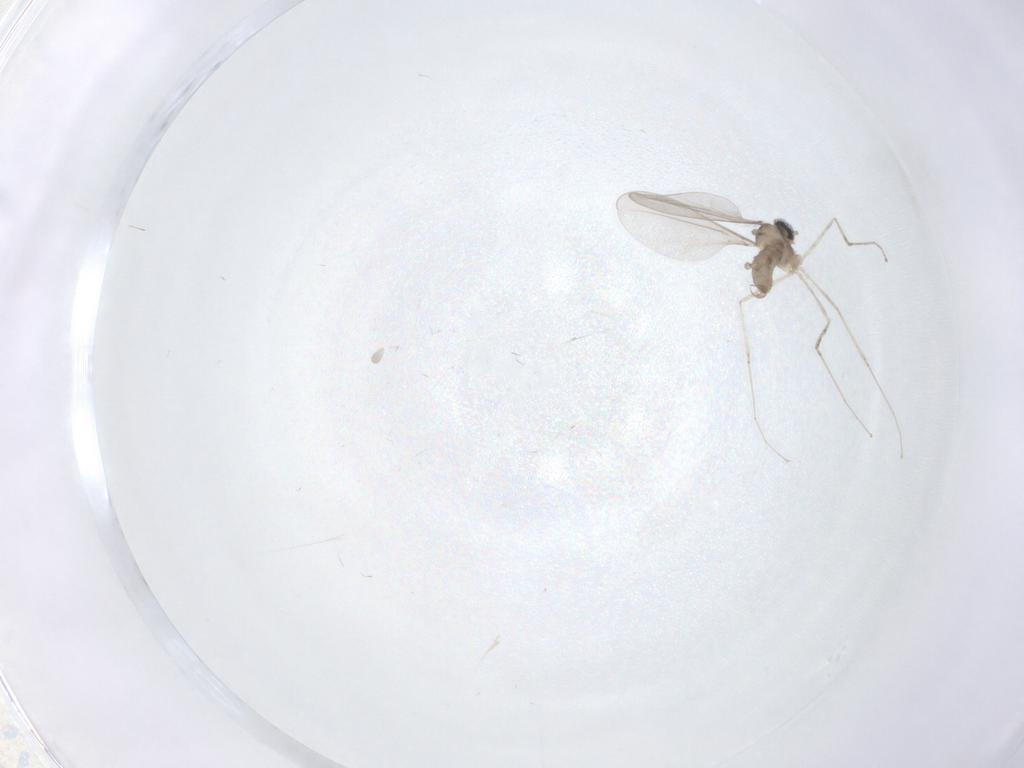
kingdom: Animalia
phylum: Arthropoda
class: Insecta
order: Diptera
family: Cecidomyiidae
